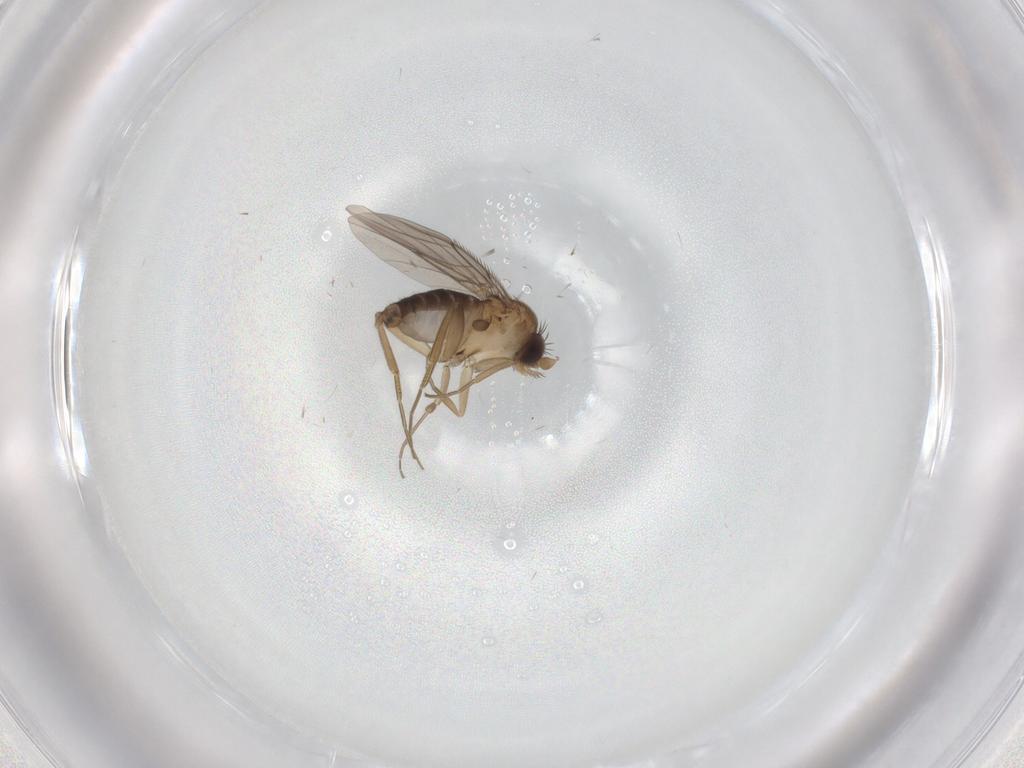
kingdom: Animalia
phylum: Arthropoda
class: Insecta
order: Diptera
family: Phoridae
